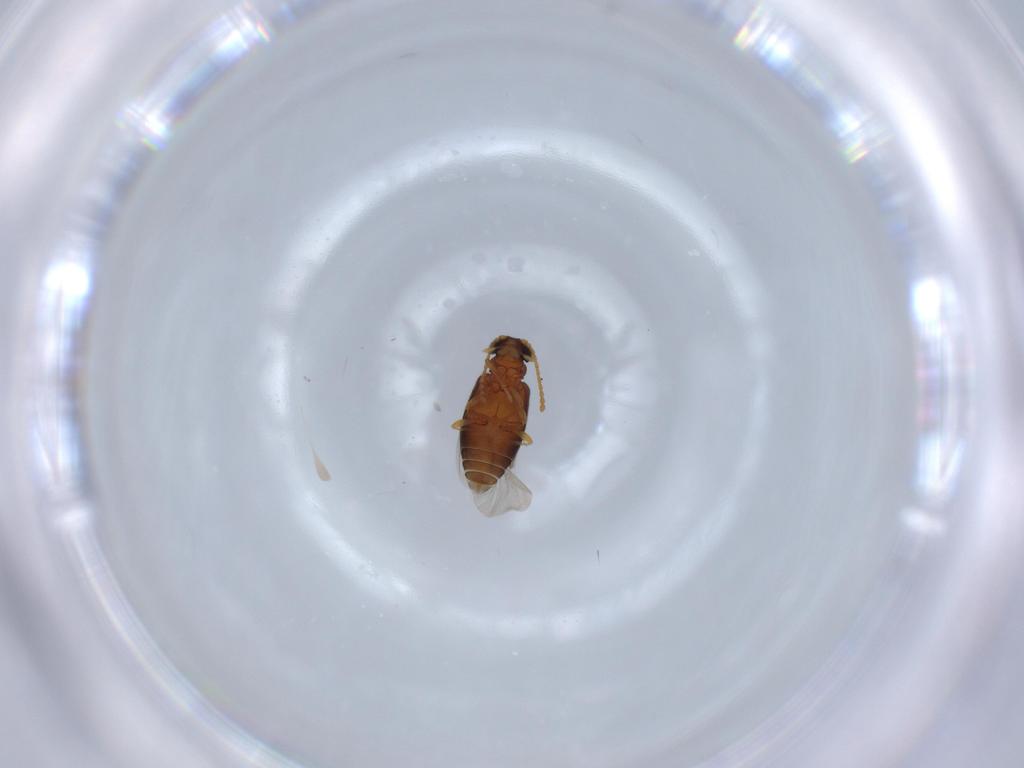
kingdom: Animalia
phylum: Arthropoda
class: Insecta
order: Coleoptera
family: Aderidae
